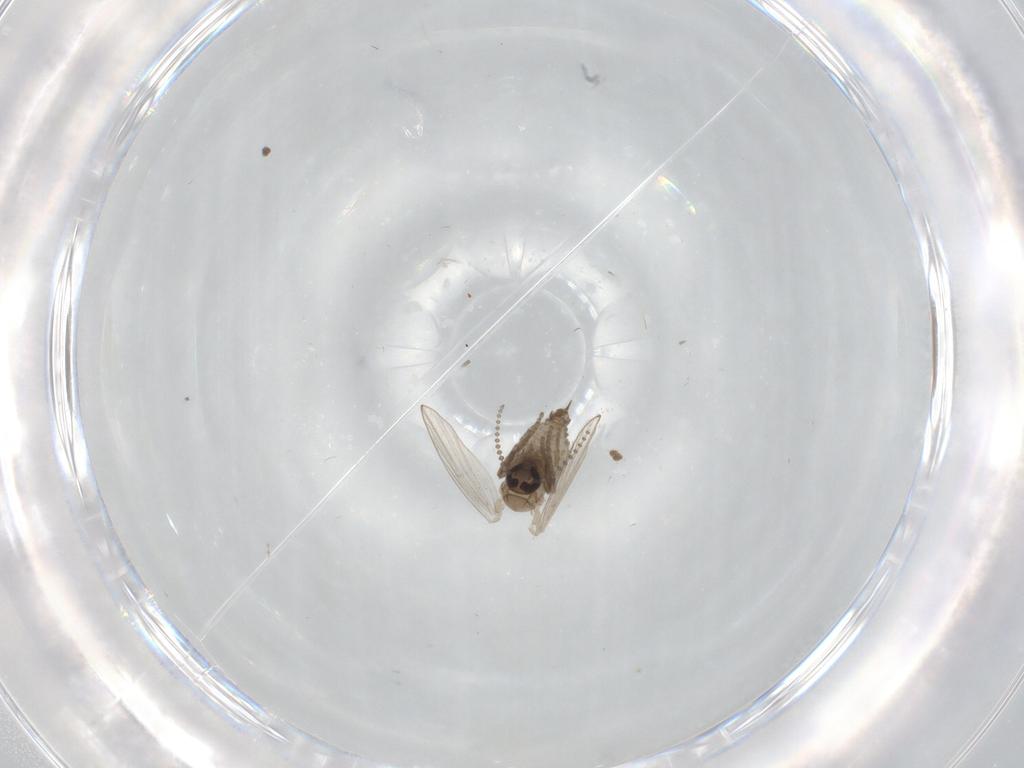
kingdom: Animalia
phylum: Arthropoda
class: Insecta
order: Diptera
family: Psychodidae
